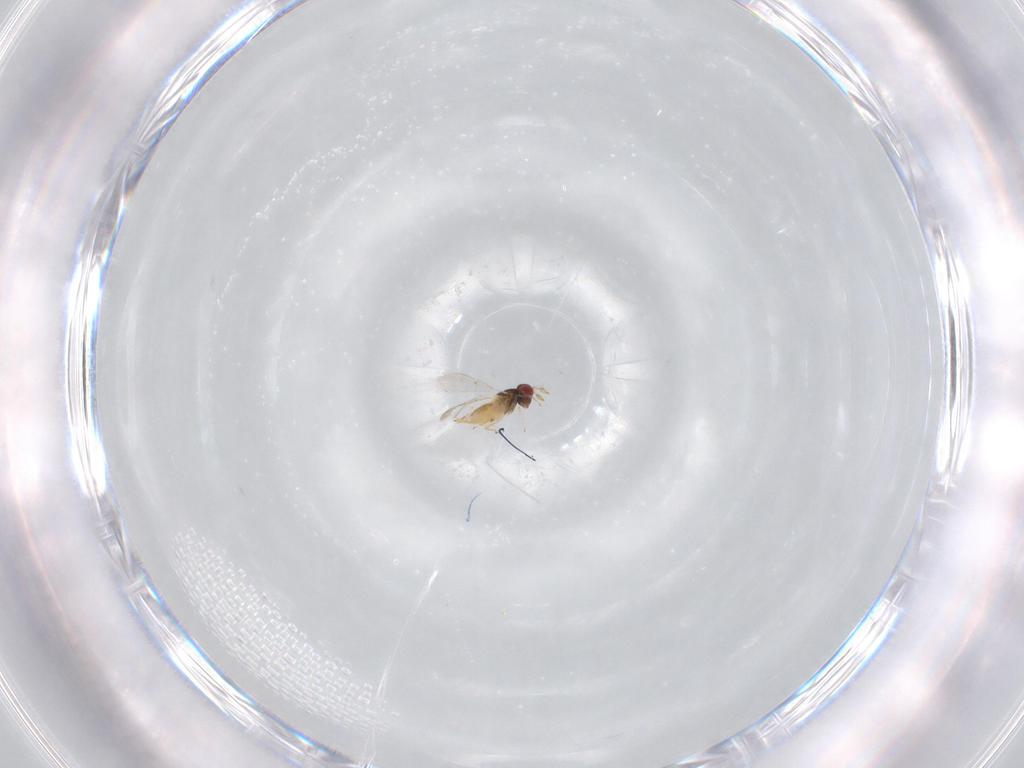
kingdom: Animalia
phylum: Arthropoda
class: Insecta
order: Hymenoptera
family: Trichogrammatidae
